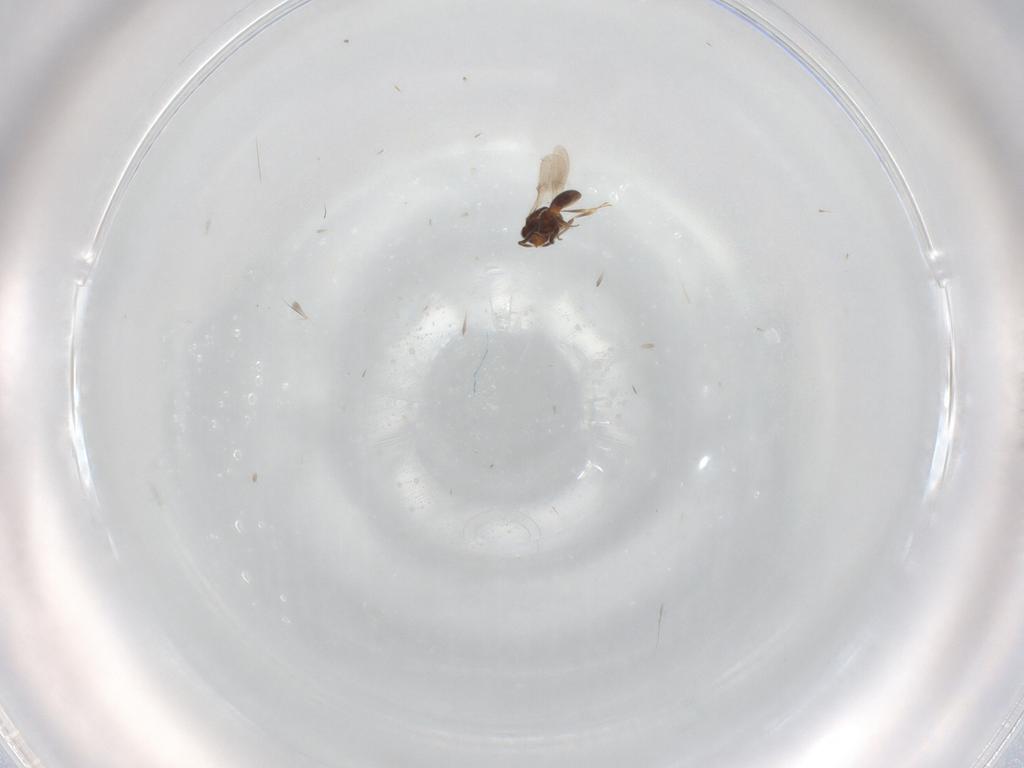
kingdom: Animalia
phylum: Arthropoda
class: Insecta
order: Hymenoptera
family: Scelionidae
